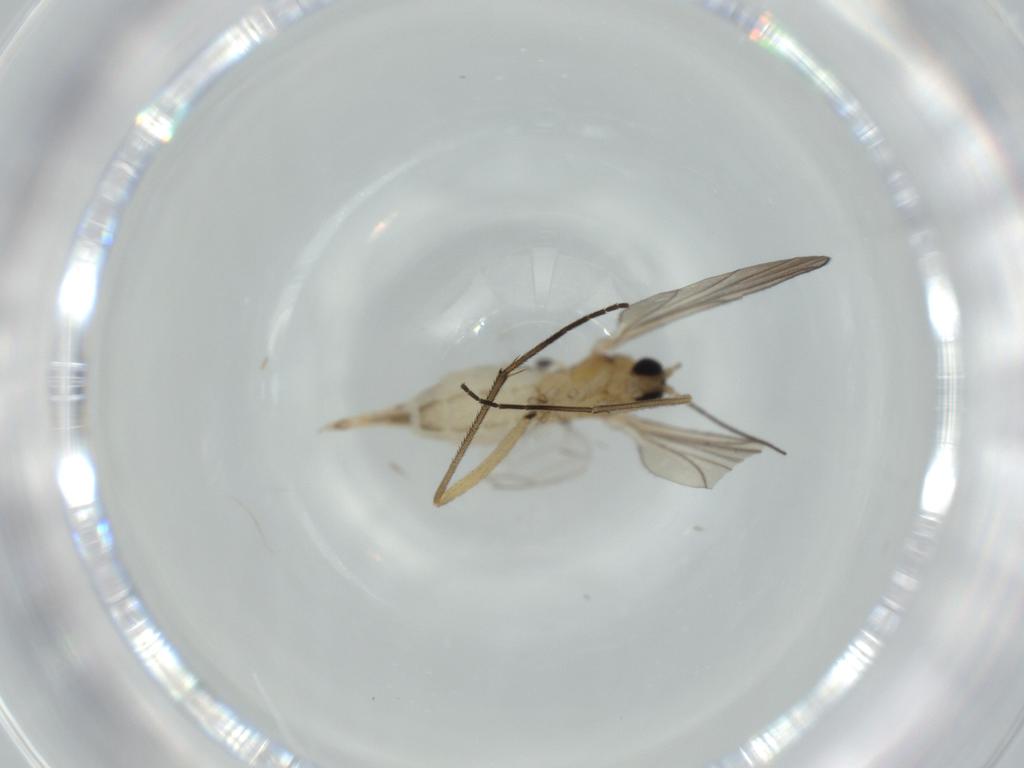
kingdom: Animalia
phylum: Arthropoda
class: Insecta
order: Diptera
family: Sciaridae
